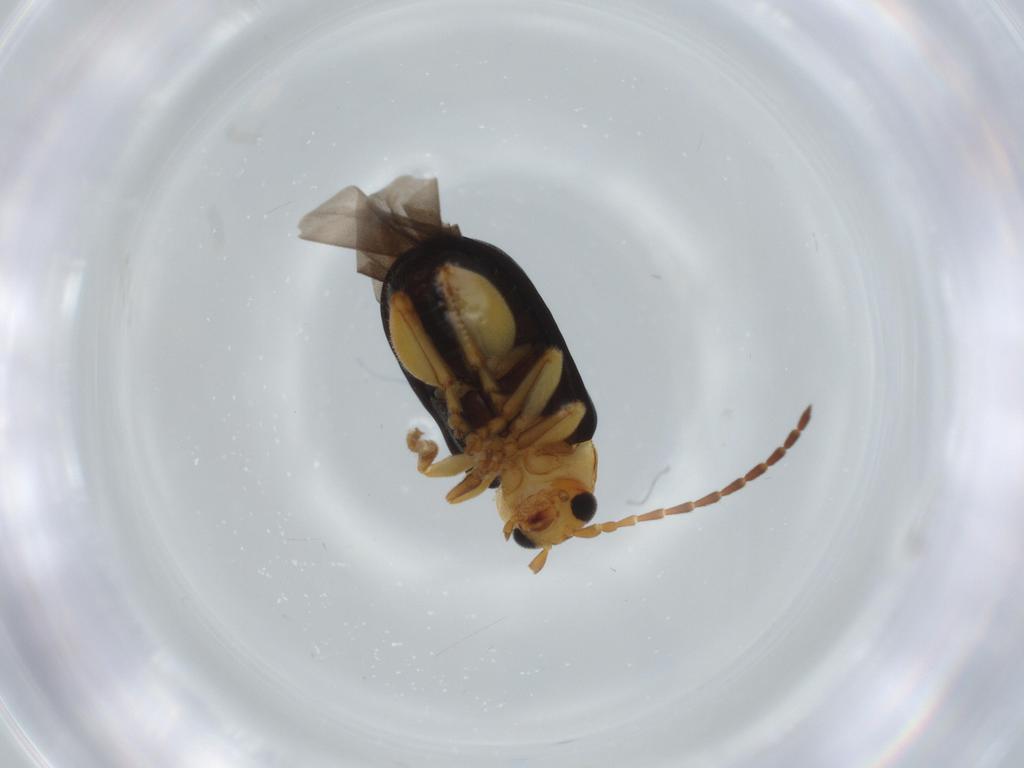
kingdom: Animalia
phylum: Arthropoda
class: Insecta
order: Coleoptera
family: Chrysomelidae
